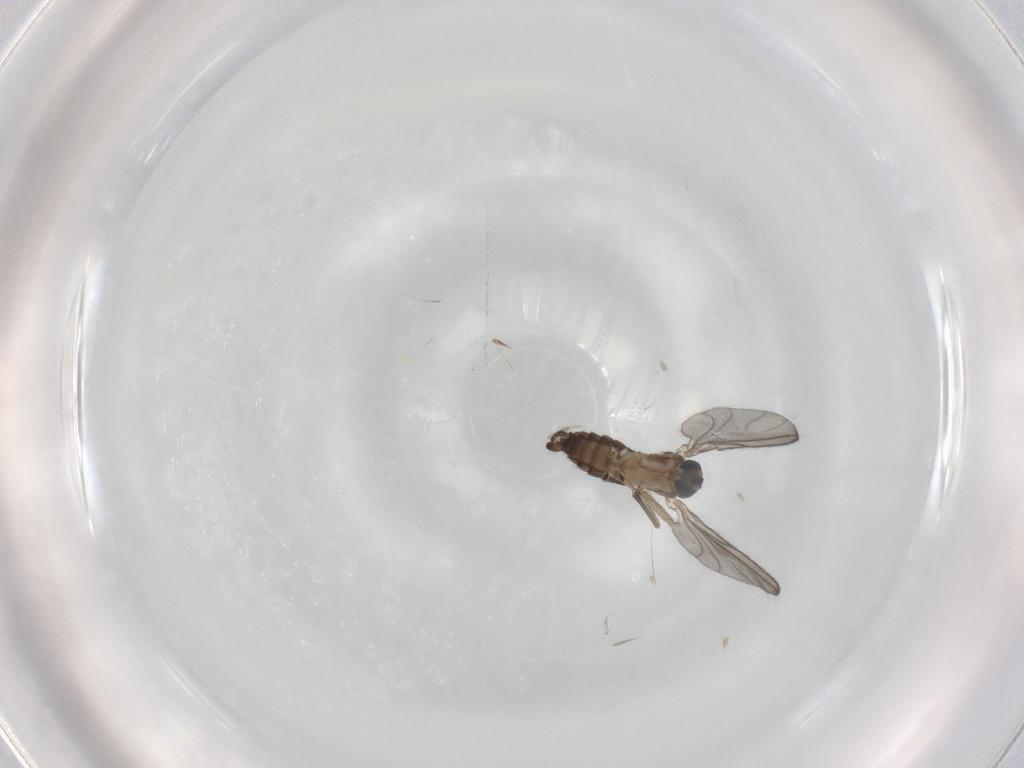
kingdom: Animalia
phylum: Arthropoda
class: Insecta
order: Diptera
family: Sciaridae
